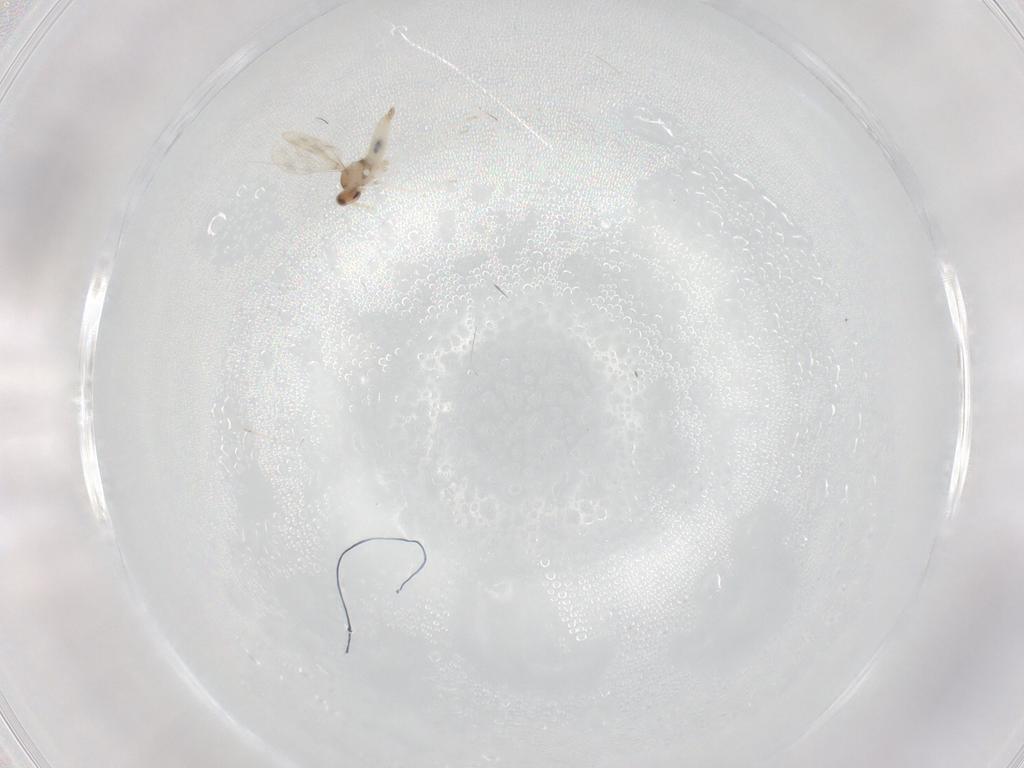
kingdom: Animalia
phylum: Arthropoda
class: Insecta
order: Diptera
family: Cecidomyiidae
